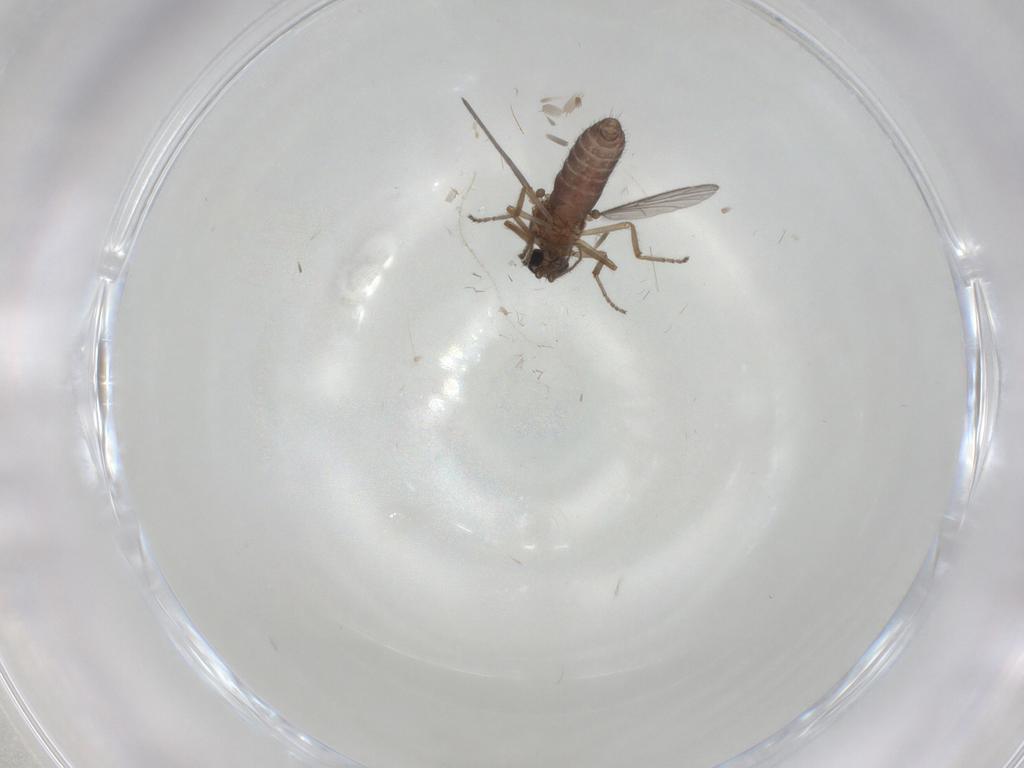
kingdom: Animalia
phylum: Arthropoda
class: Insecta
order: Diptera
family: Ceratopogonidae
